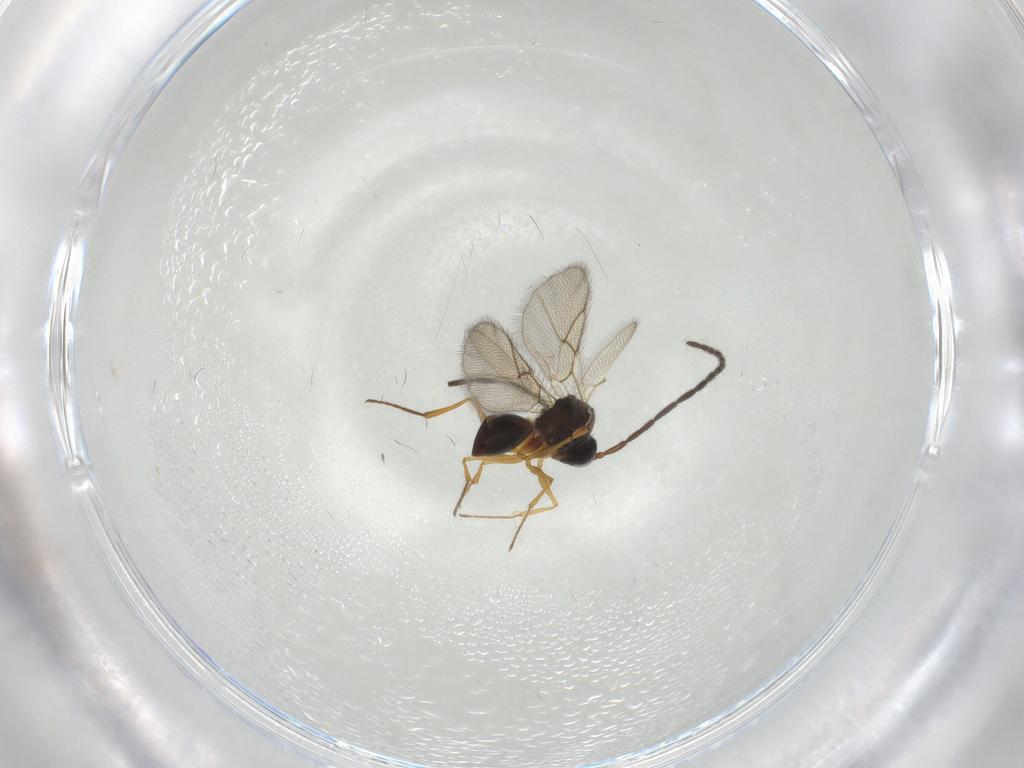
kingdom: Animalia
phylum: Arthropoda
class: Insecta
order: Hymenoptera
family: Figitidae
